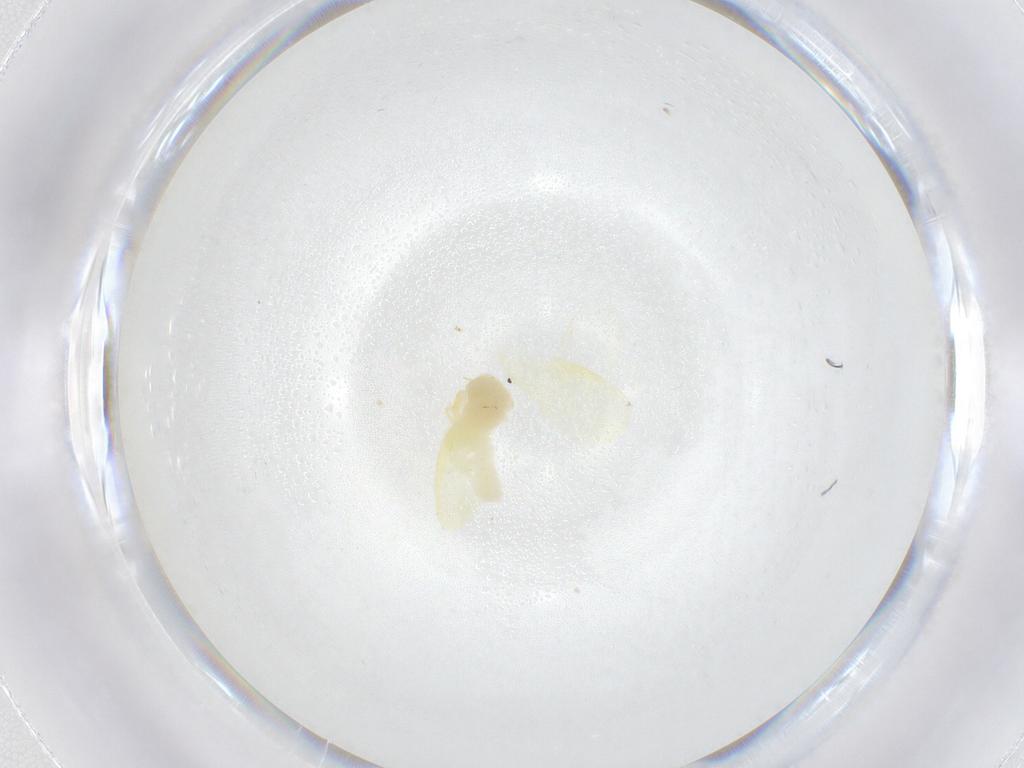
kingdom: Animalia
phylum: Arthropoda
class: Insecta
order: Hemiptera
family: Aleyrodidae
